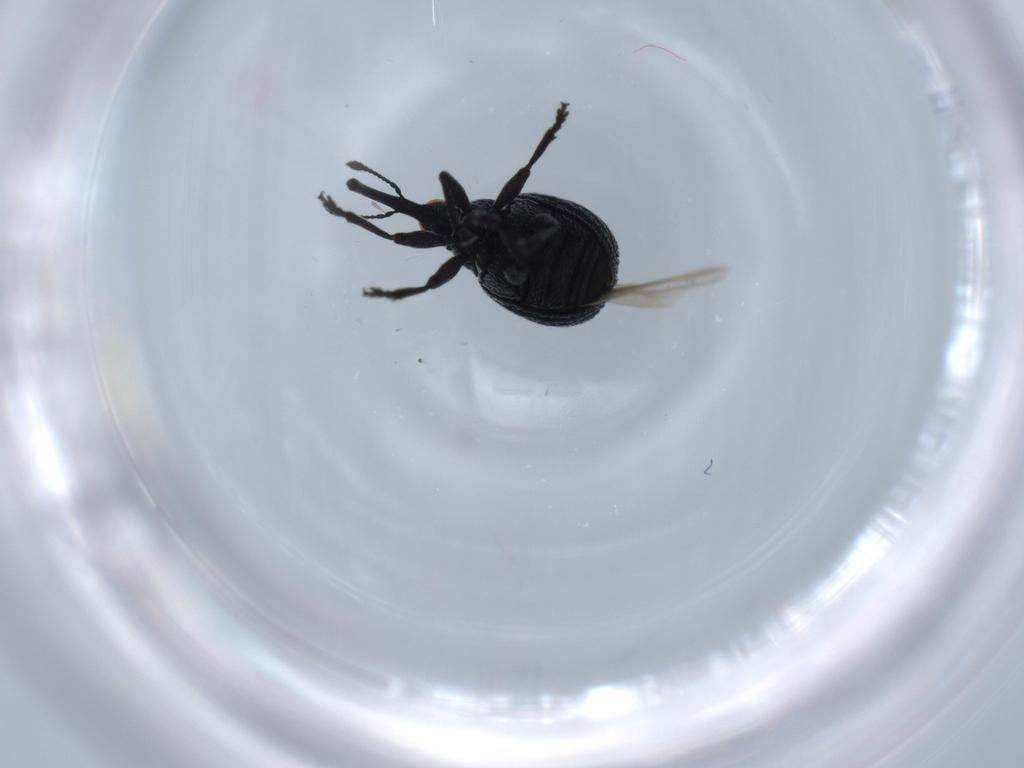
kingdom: Animalia
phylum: Arthropoda
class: Insecta
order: Coleoptera
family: Coccinellidae
